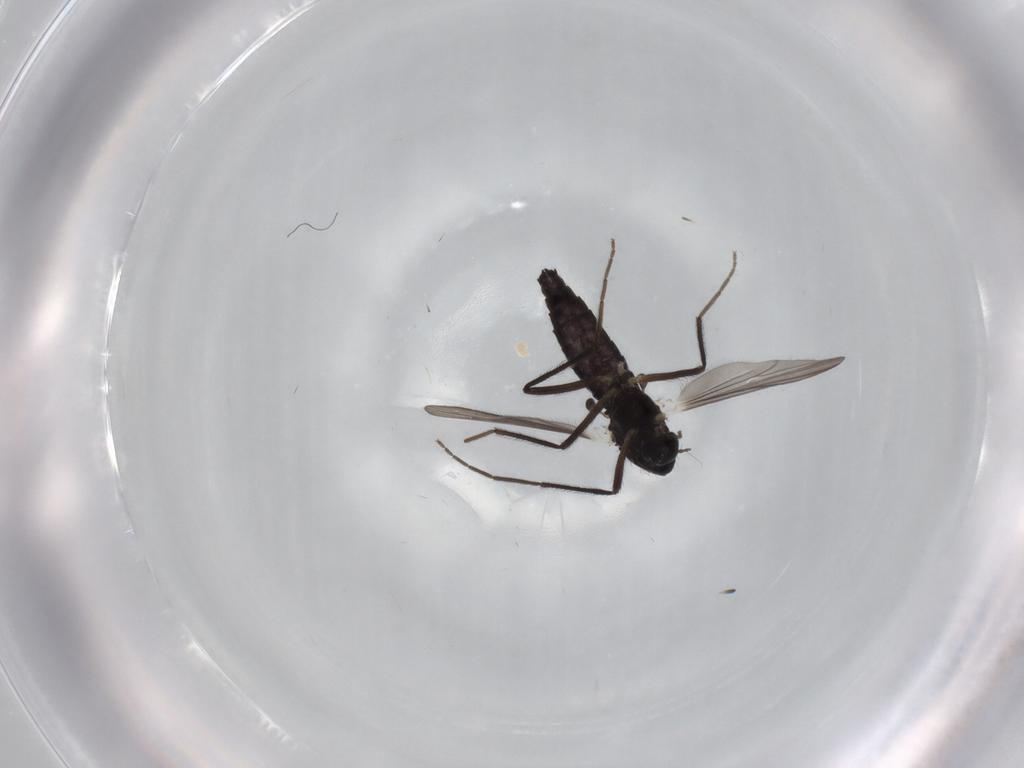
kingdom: Animalia
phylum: Arthropoda
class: Insecta
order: Diptera
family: Chironomidae
